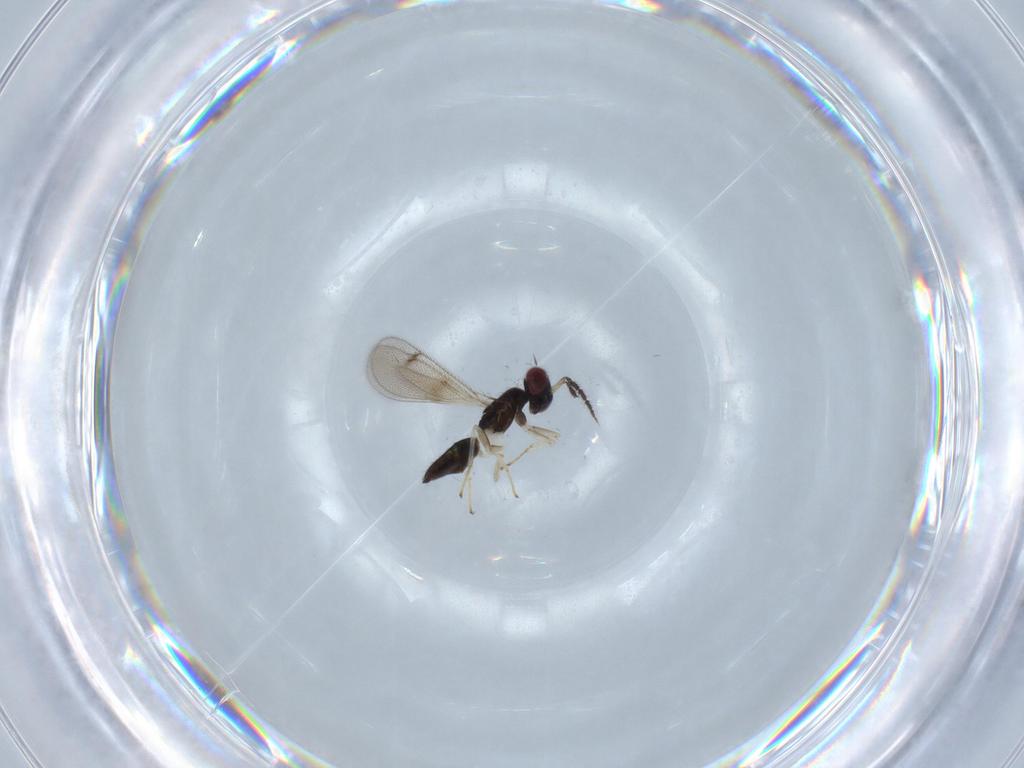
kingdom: Animalia
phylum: Arthropoda
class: Insecta
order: Hymenoptera
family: Eulophidae
